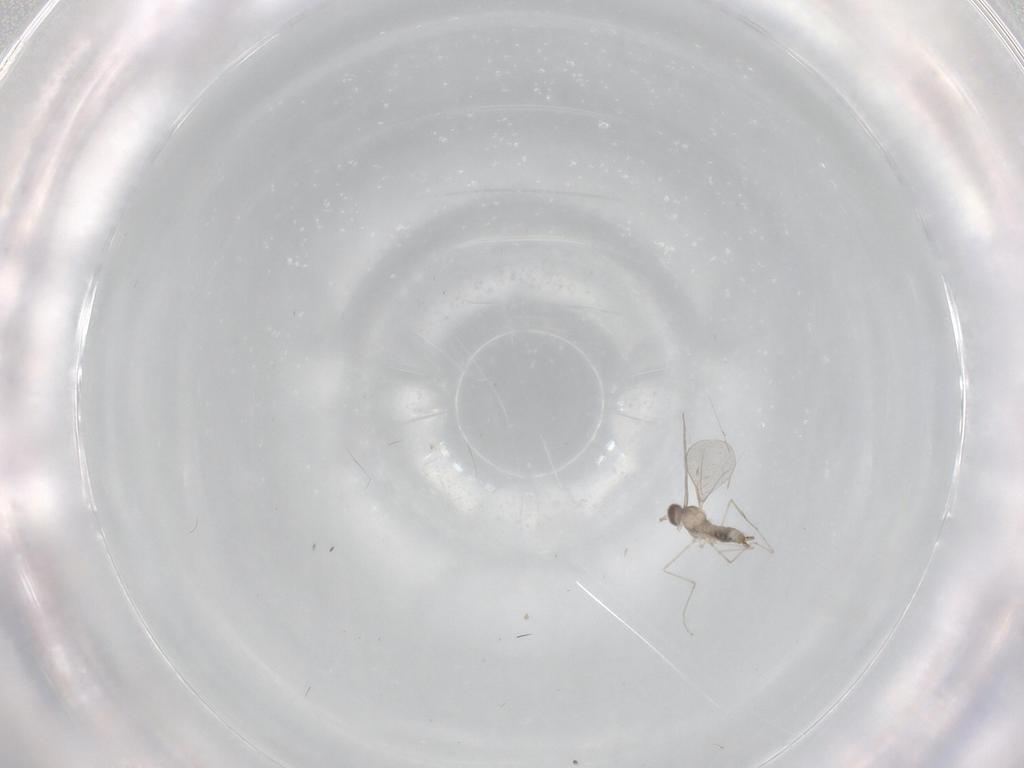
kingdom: Animalia
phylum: Arthropoda
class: Insecta
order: Diptera
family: Cecidomyiidae
